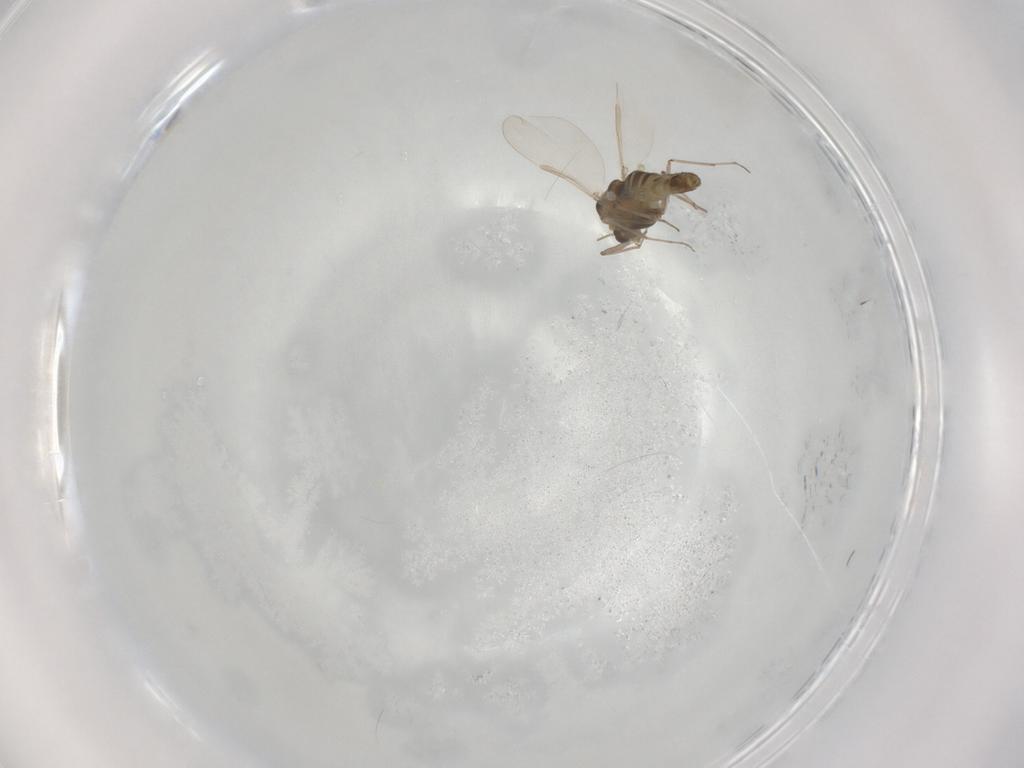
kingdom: Animalia
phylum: Arthropoda
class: Insecta
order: Diptera
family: Chironomidae
